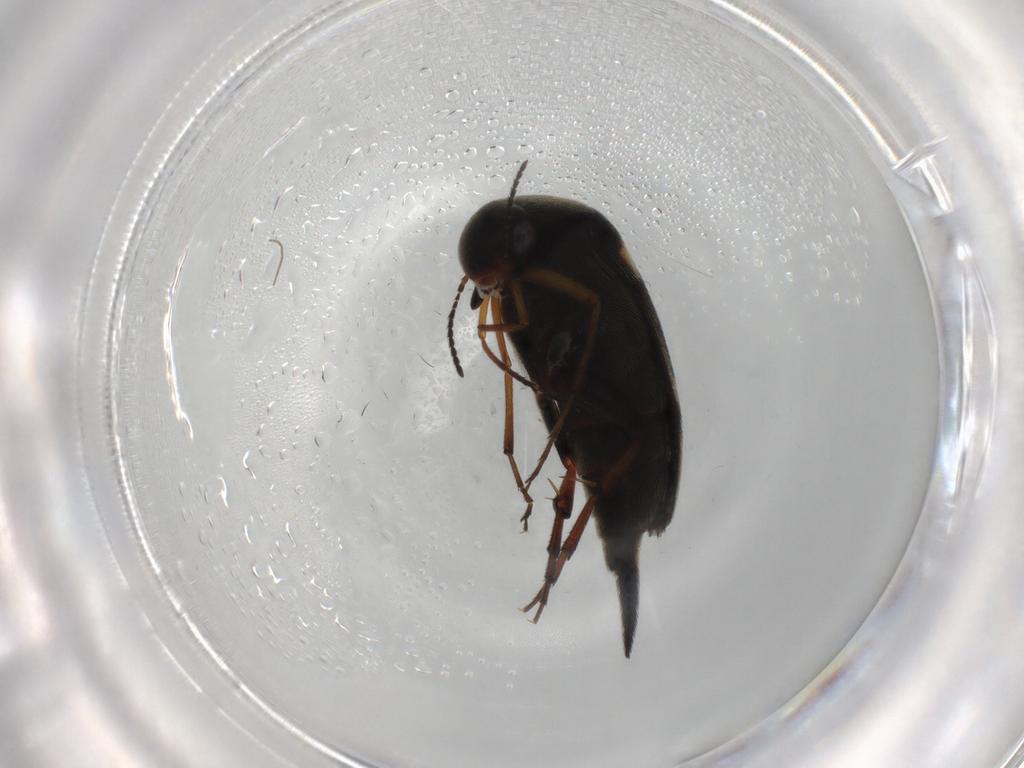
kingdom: Animalia
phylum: Arthropoda
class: Insecta
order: Coleoptera
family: Mordellidae
